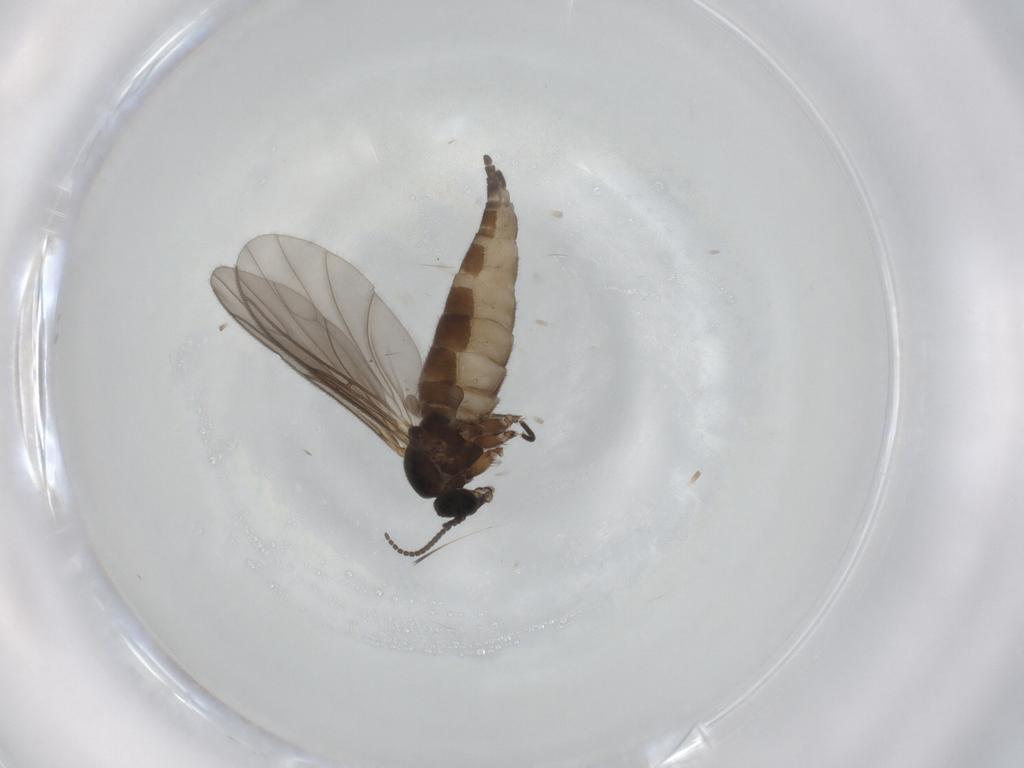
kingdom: Animalia
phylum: Arthropoda
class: Insecta
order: Diptera
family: Sciaridae
